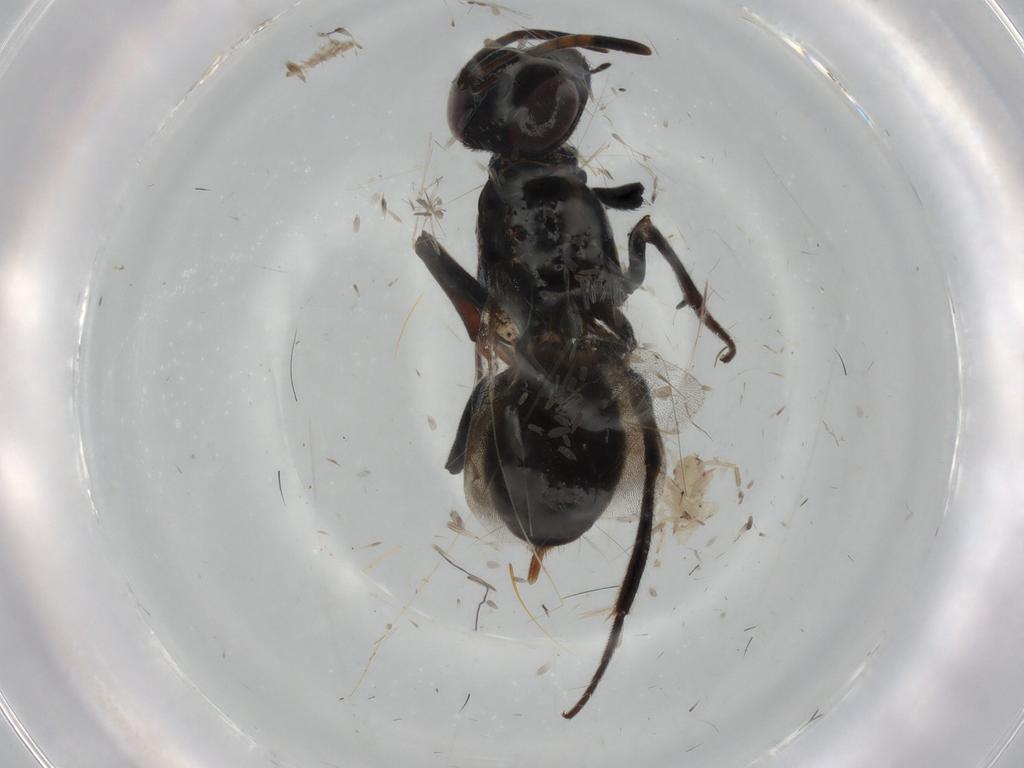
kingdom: Animalia
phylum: Arthropoda
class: Insecta
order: Hymenoptera
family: Eupelmidae
